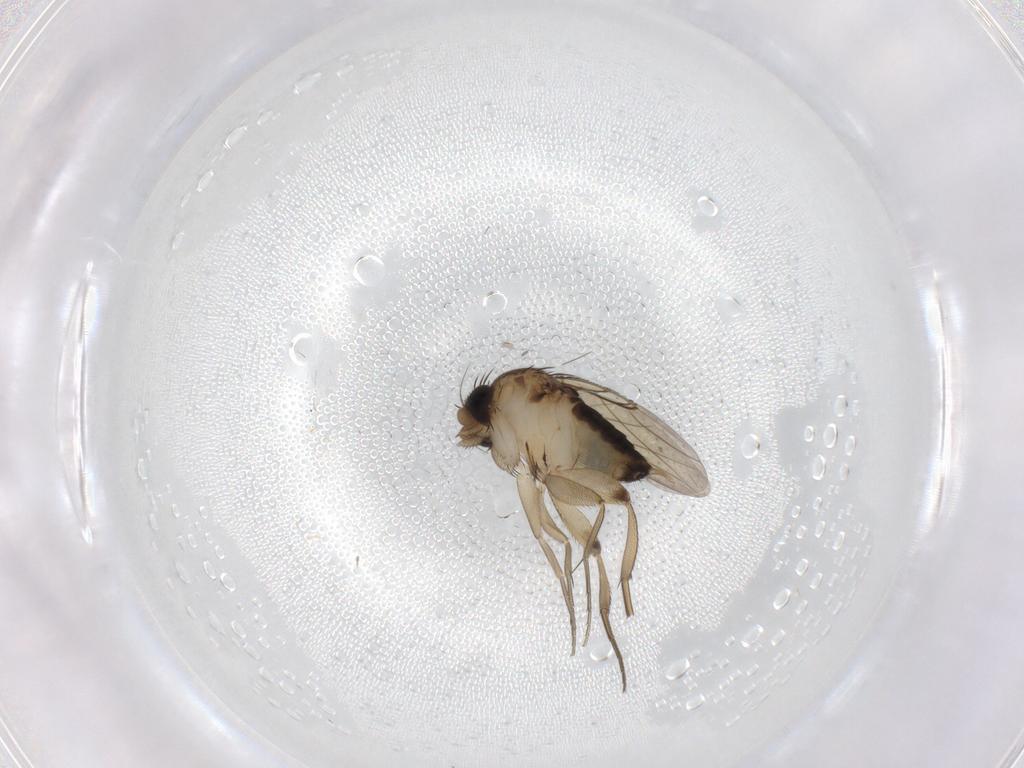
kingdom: Animalia
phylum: Arthropoda
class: Insecta
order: Diptera
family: Phoridae
